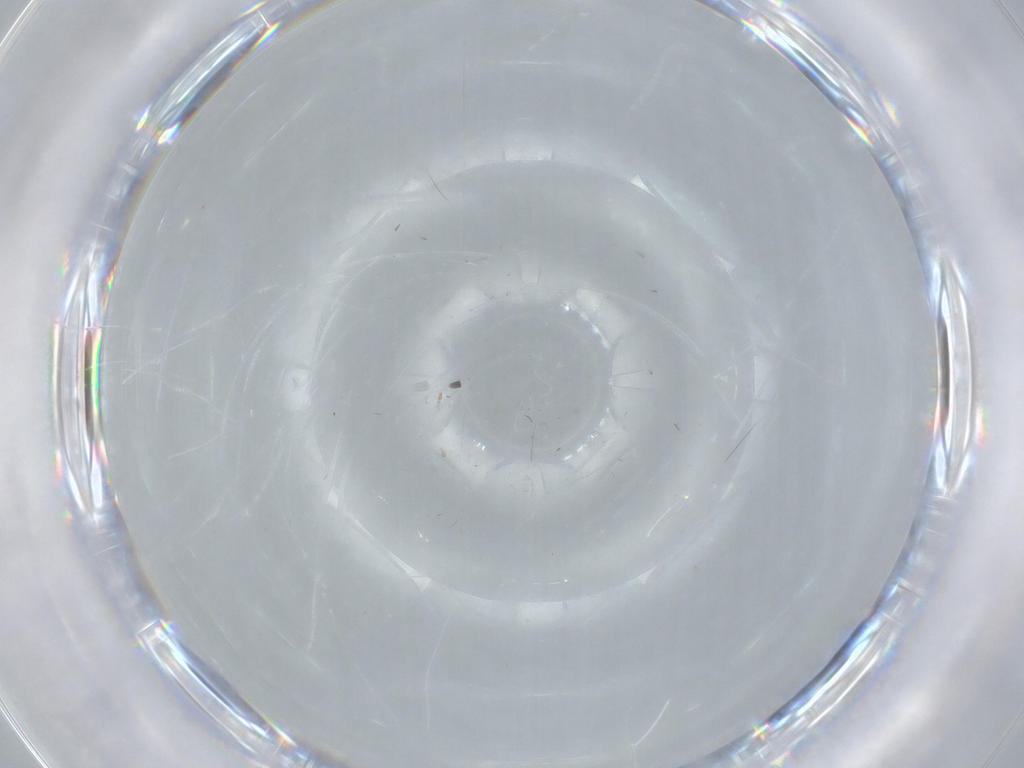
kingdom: Animalia
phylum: Arthropoda
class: Insecta
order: Diptera
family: Chironomidae
